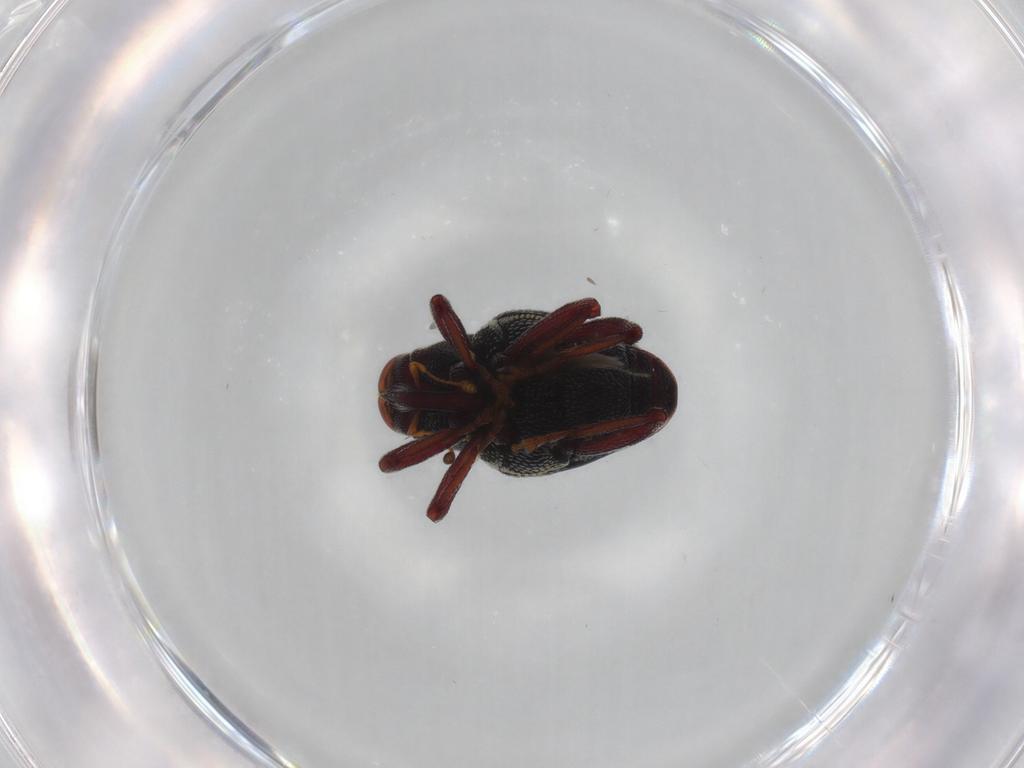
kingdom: Animalia
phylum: Arthropoda
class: Insecta
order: Coleoptera
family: Curculionidae
